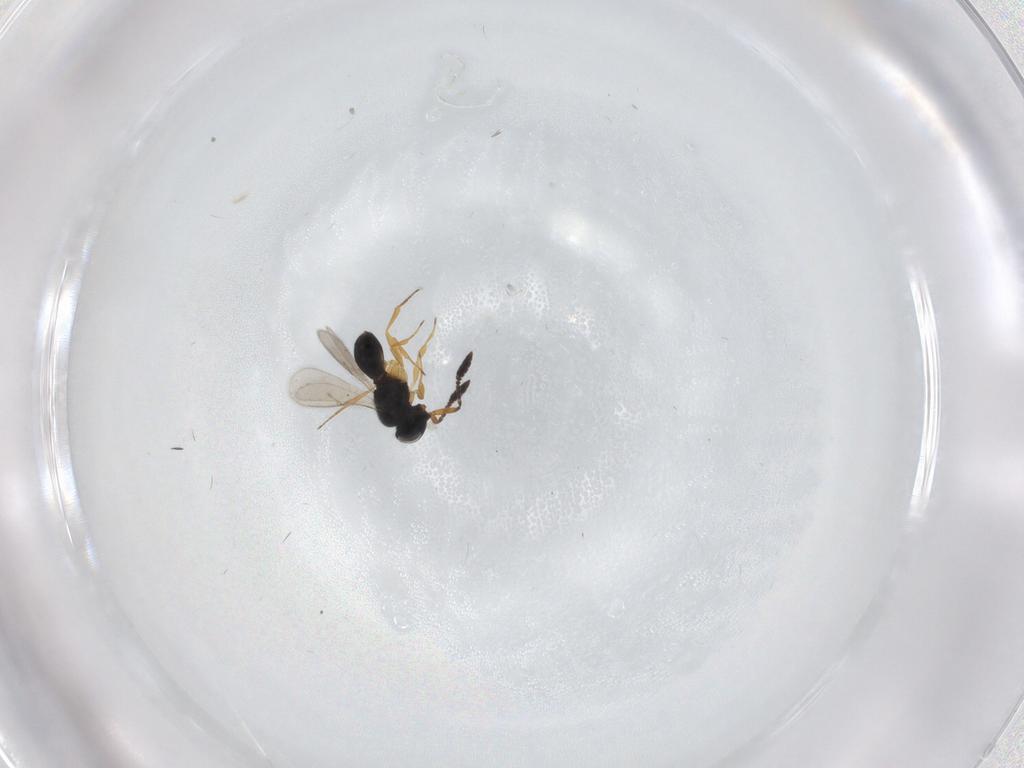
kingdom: Animalia
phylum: Arthropoda
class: Insecta
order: Hymenoptera
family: Scelionidae
